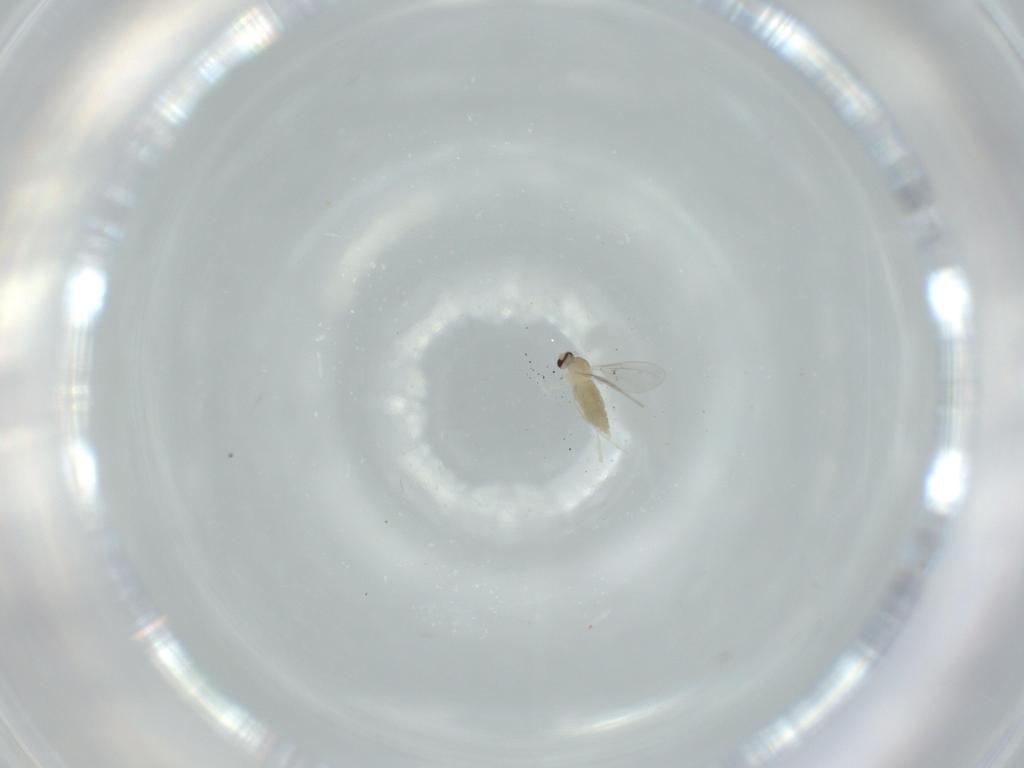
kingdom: Animalia
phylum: Arthropoda
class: Insecta
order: Diptera
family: Cecidomyiidae
